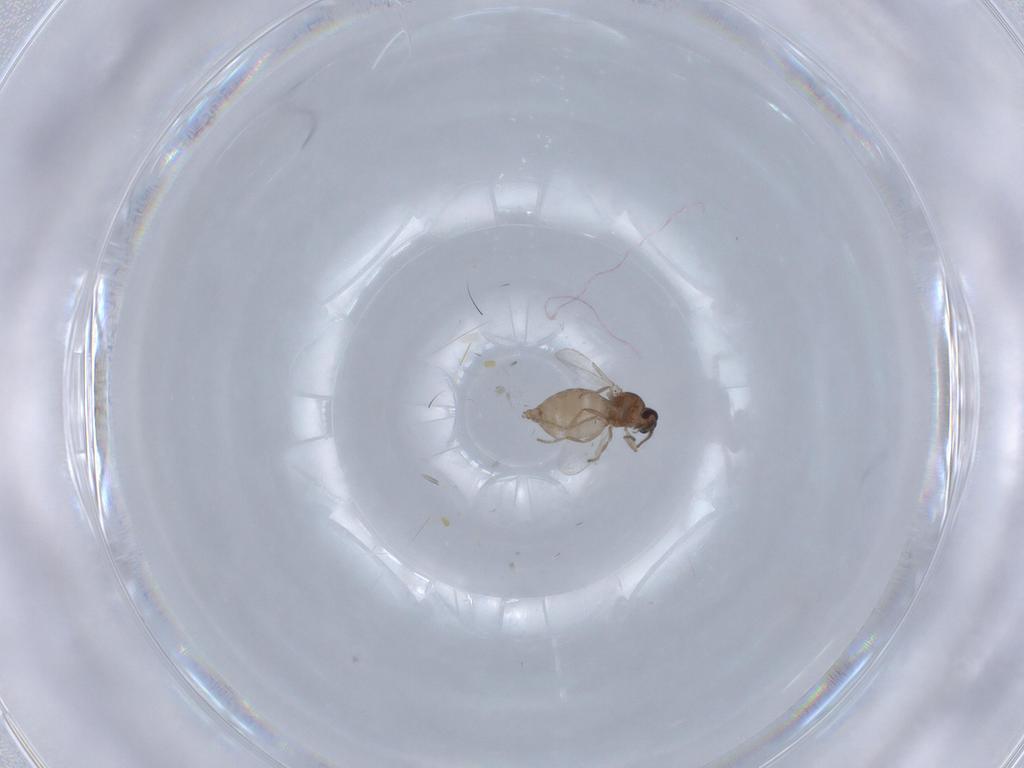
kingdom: Animalia
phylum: Arthropoda
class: Insecta
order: Diptera
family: Ceratopogonidae
